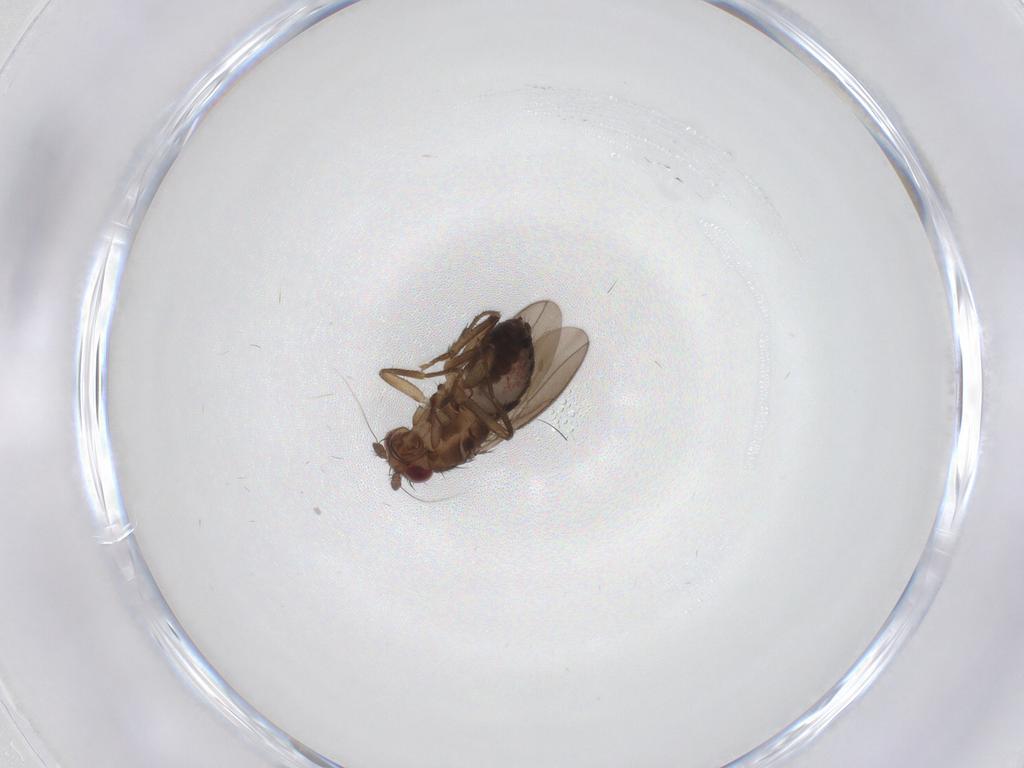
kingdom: Animalia
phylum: Arthropoda
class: Insecta
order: Diptera
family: Sphaeroceridae
